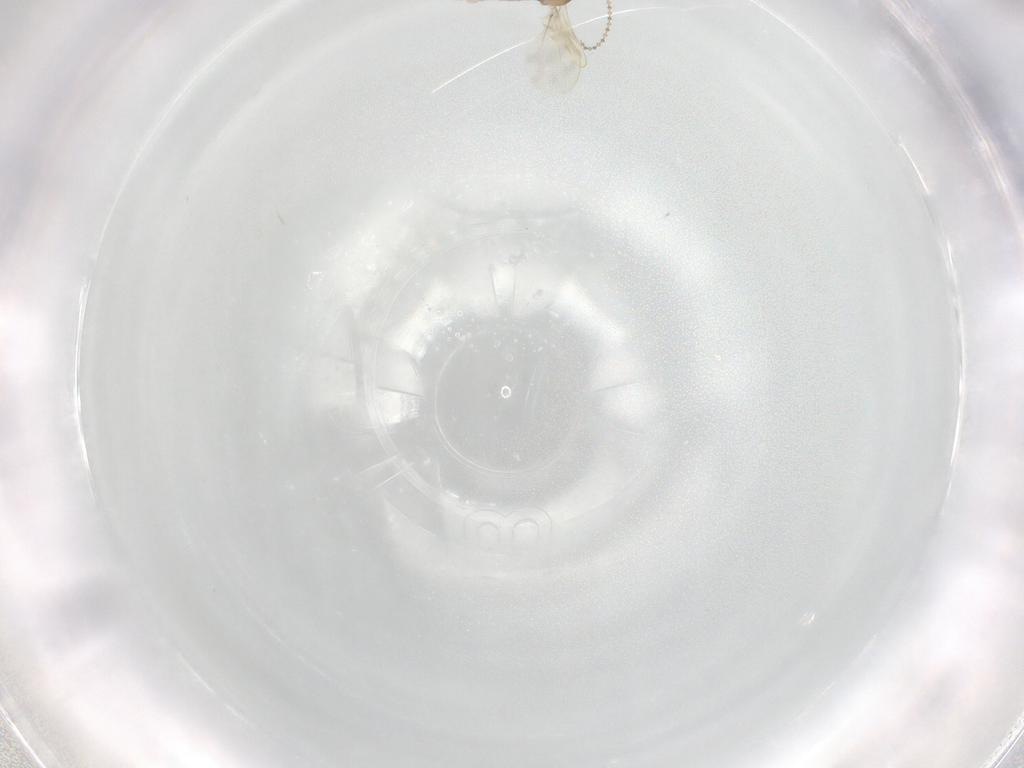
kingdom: Animalia
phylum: Arthropoda
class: Insecta
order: Diptera
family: Cecidomyiidae
